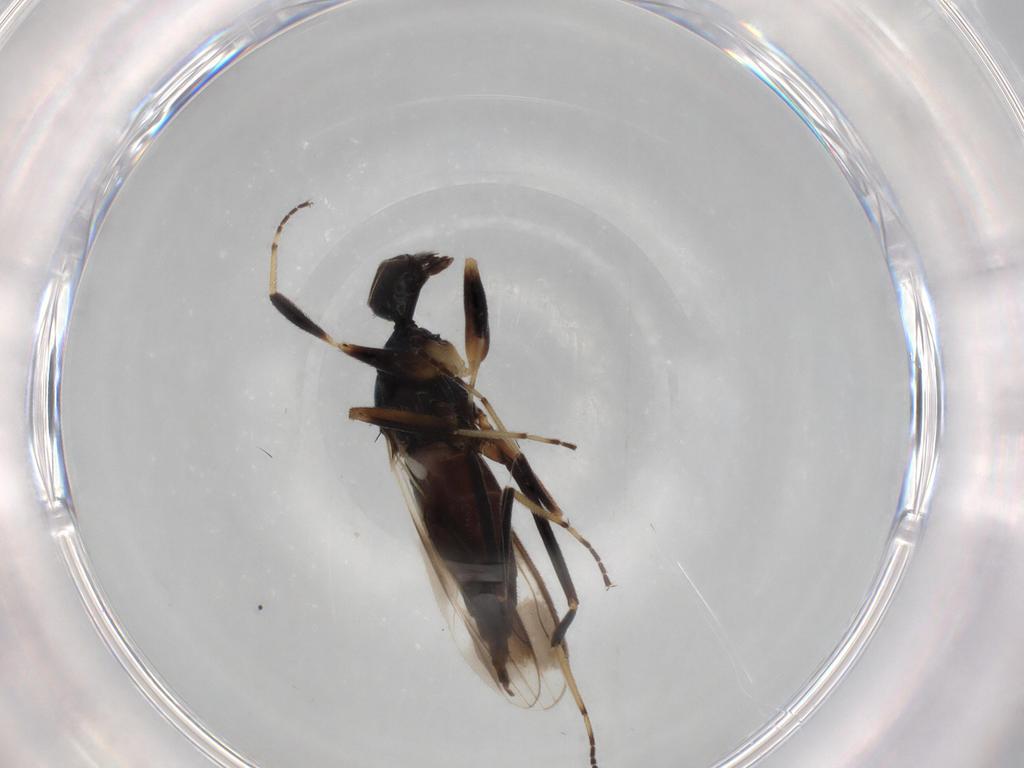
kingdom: Animalia
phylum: Arthropoda
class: Insecta
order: Diptera
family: Hybotidae
